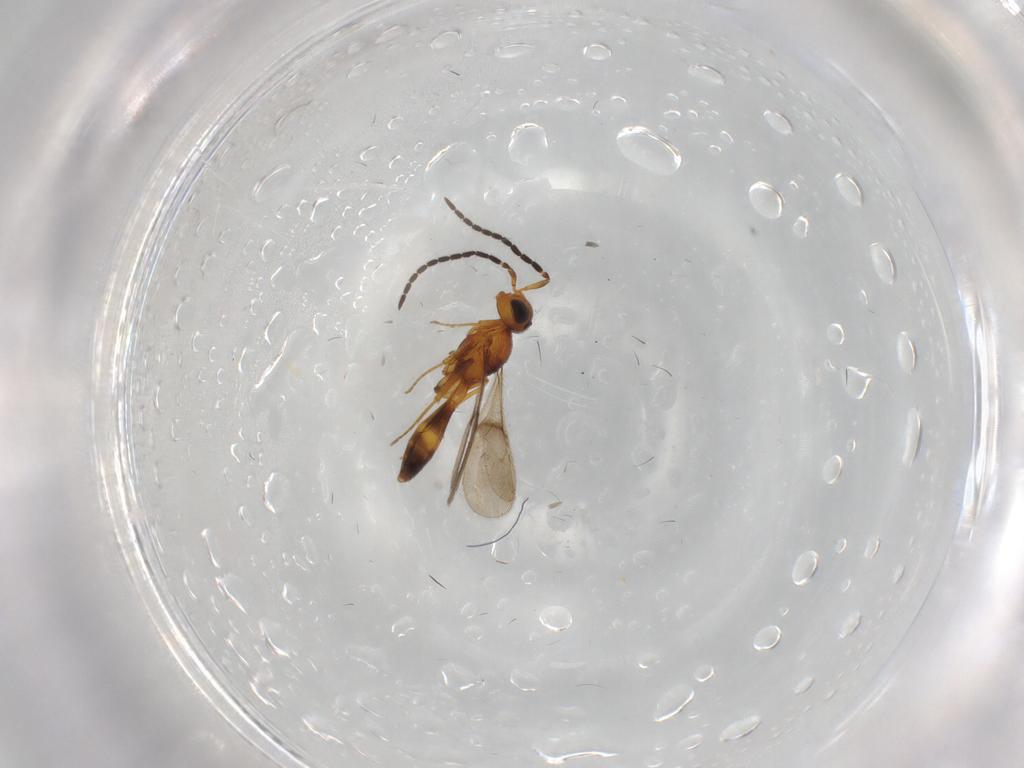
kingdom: Animalia
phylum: Arthropoda
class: Insecta
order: Hymenoptera
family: Scelionidae
